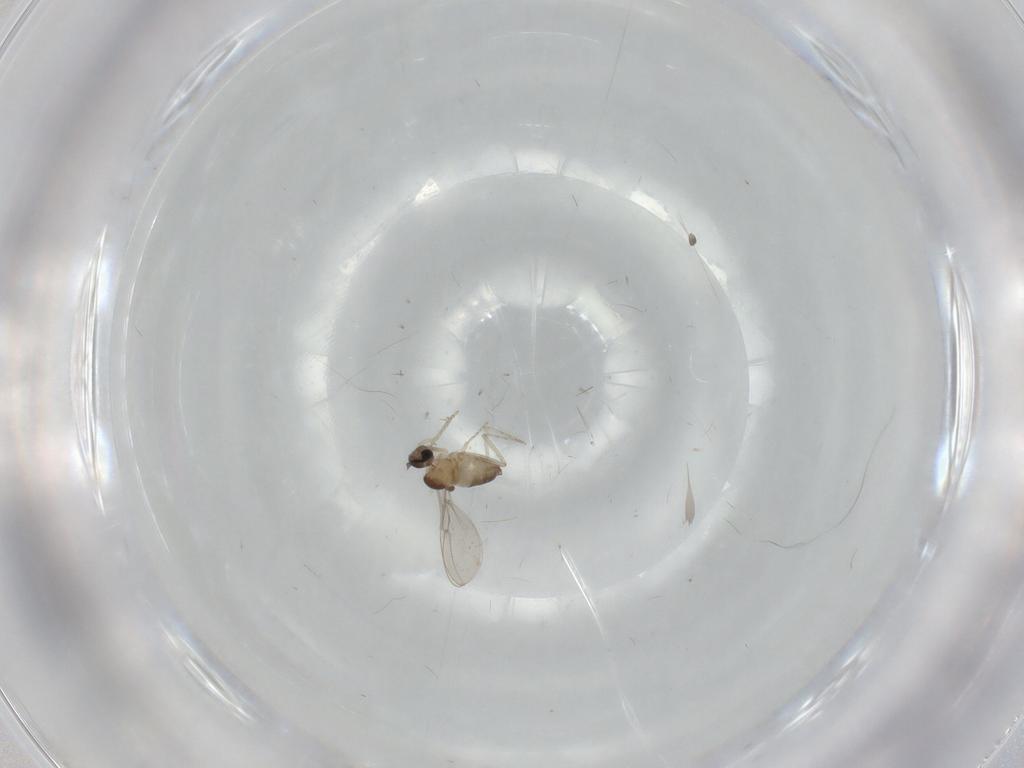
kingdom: Animalia
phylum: Arthropoda
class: Insecta
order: Diptera
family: Cecidomyiidae
